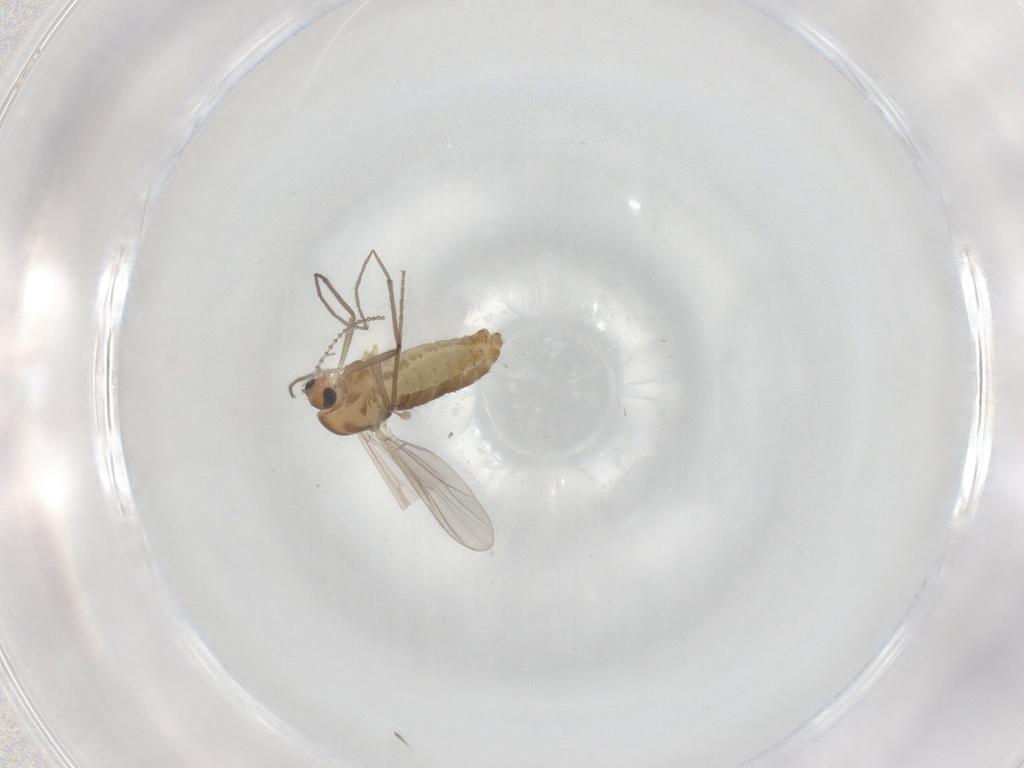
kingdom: Animalia
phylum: Arthropoda
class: Insecta
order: Diptera
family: Chironomidae
